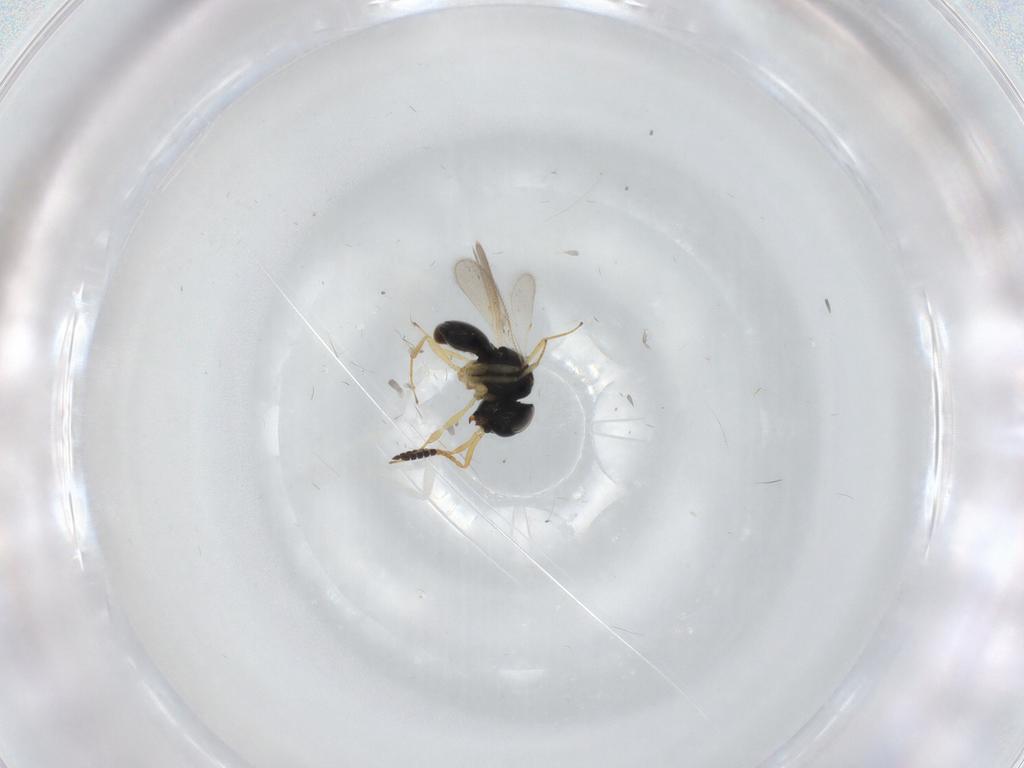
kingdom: Animalia
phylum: Arthropoda
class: Insecta
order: Hymenoptera
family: Scelionidae
